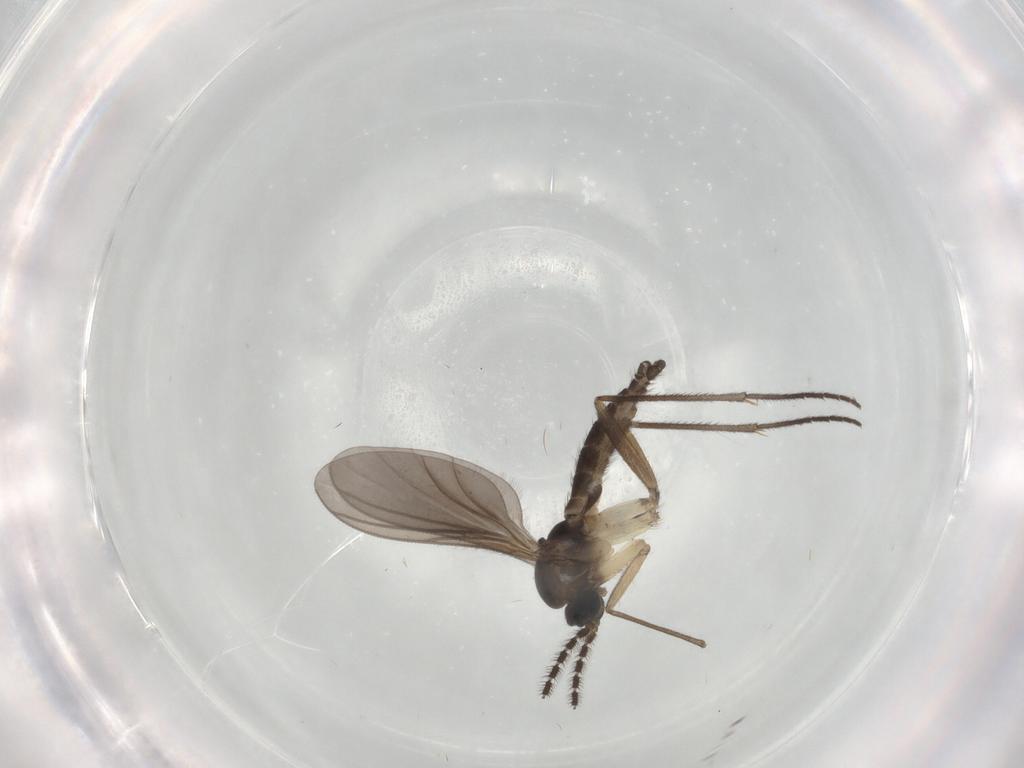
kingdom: Animalia
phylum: Arthropoda
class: Insecta
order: Diptera
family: Sciaridae
